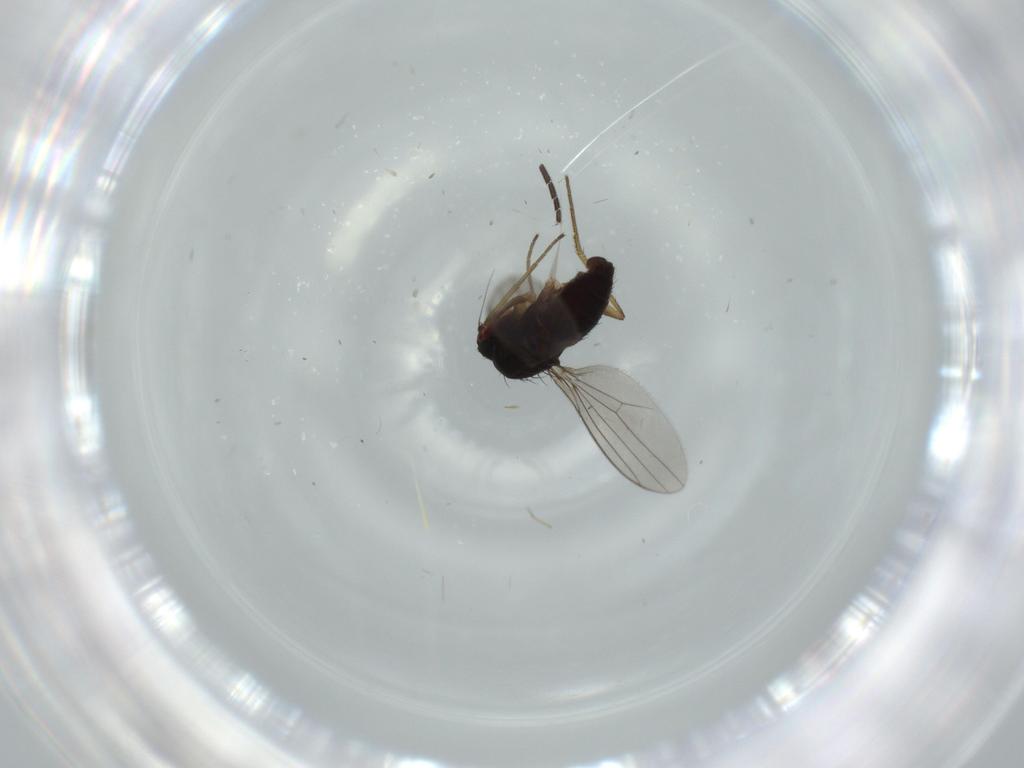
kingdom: Animalia
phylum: Arthropoda
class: Insecta
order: Diptera
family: Dolichopodidae
